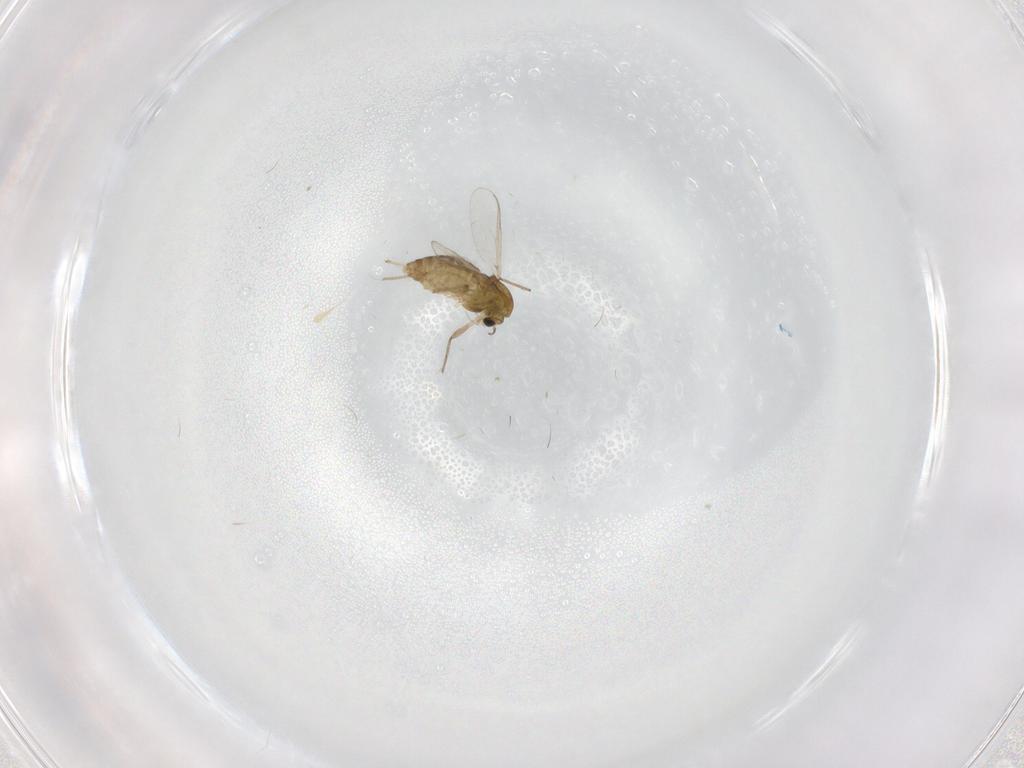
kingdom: Animalia
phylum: Arthropoda
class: Insecta
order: Diptera
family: Chironomidae
